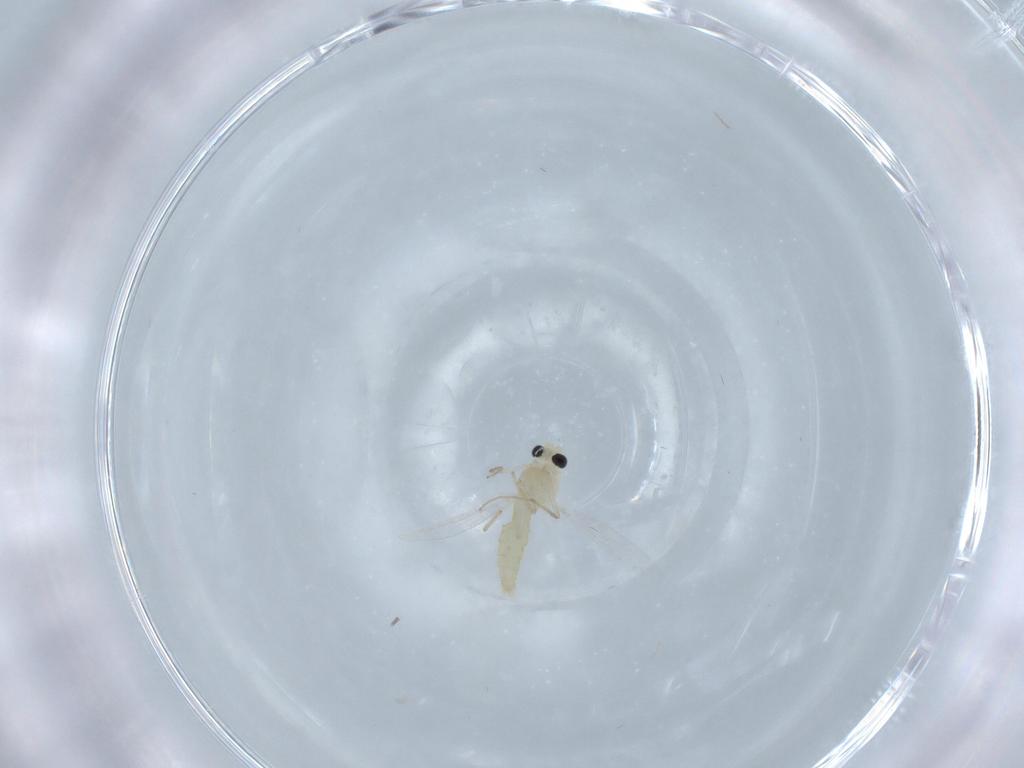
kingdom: Animalia
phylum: Arthropoda
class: Insecta
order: Diptera
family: Chironomidae
